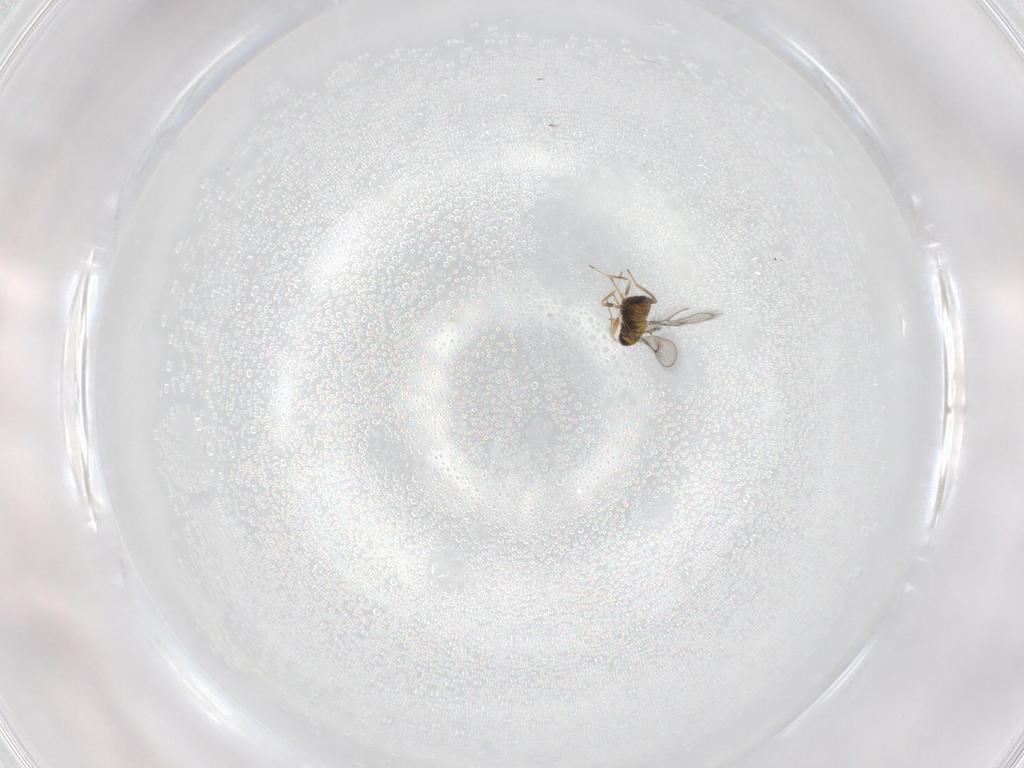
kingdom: Animalia
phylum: Arthropoda
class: Insecta
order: Hymenoptera
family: Trichogrammatidae
